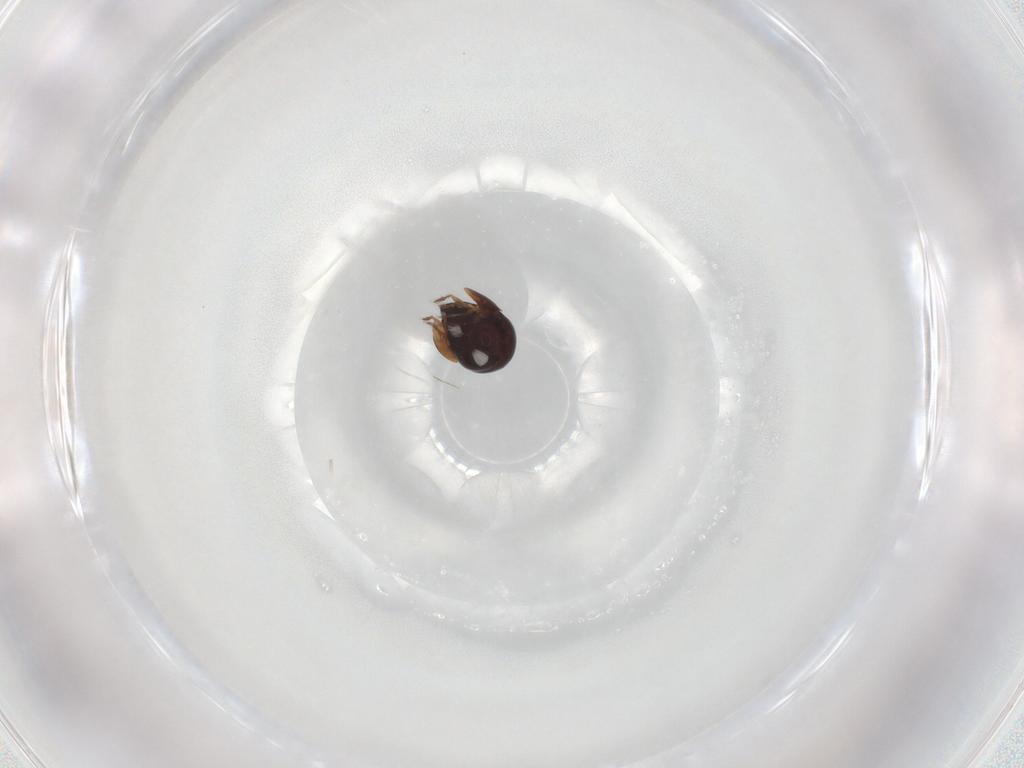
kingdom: Animalia
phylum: Arthropoda
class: Arachnida
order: Sarcoptiformes
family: Ceratozetidae
